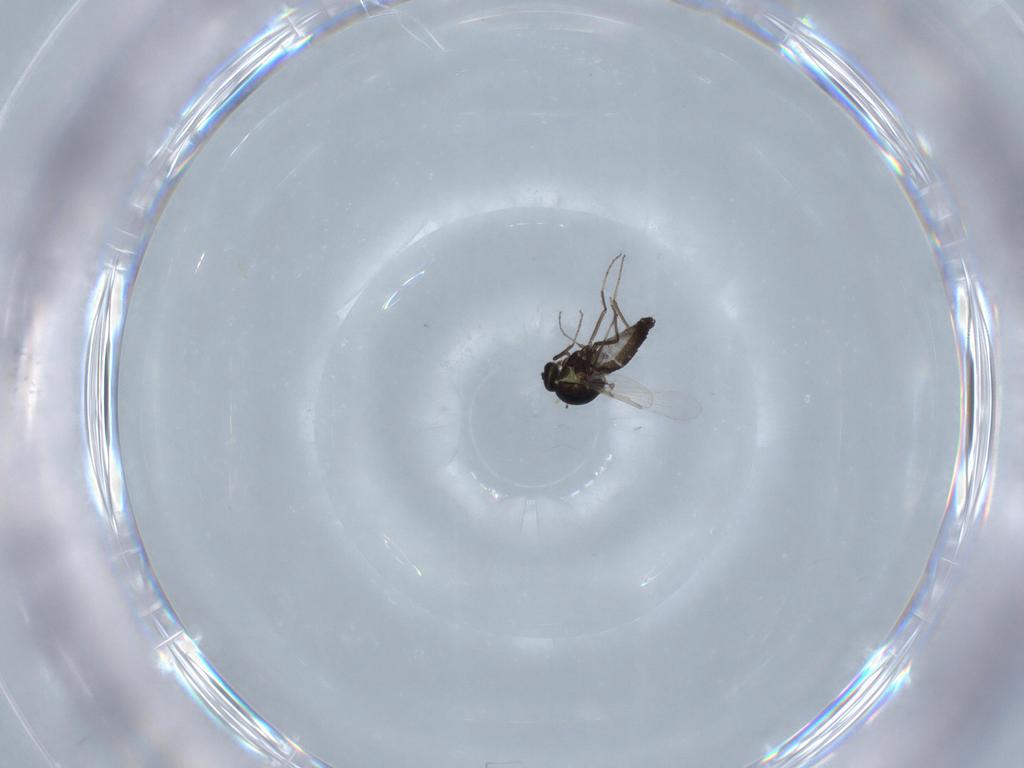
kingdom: Animalia
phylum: Arthropoda
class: Insecta
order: Diptera
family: Ceratopogonidae
